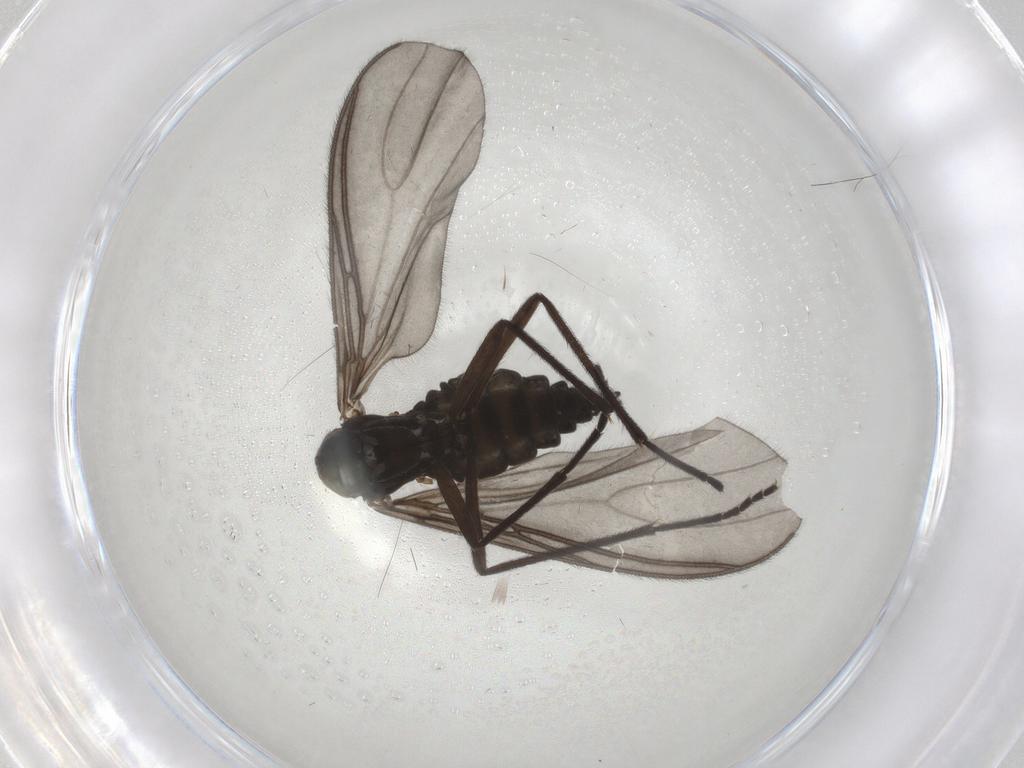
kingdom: Animalia
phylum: Arthropoda
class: Insecta
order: Diptera
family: Sciaridae
